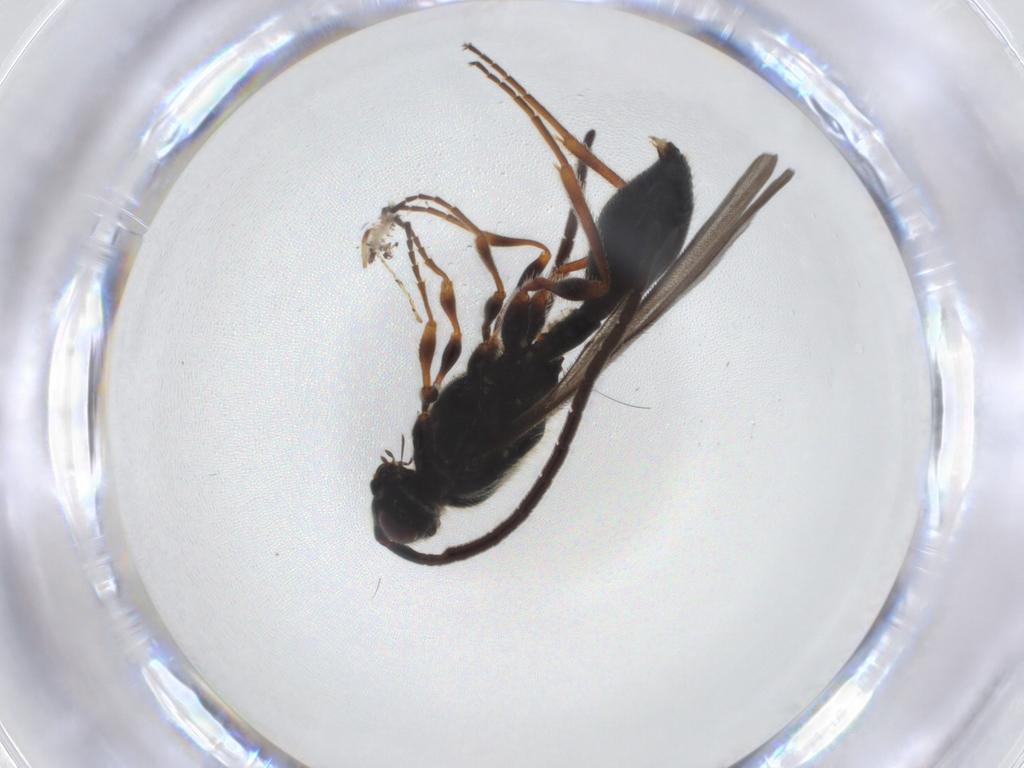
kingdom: Animalia
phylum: Arthropoda
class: Insecta
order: Hymenoptera
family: Diapriidae
